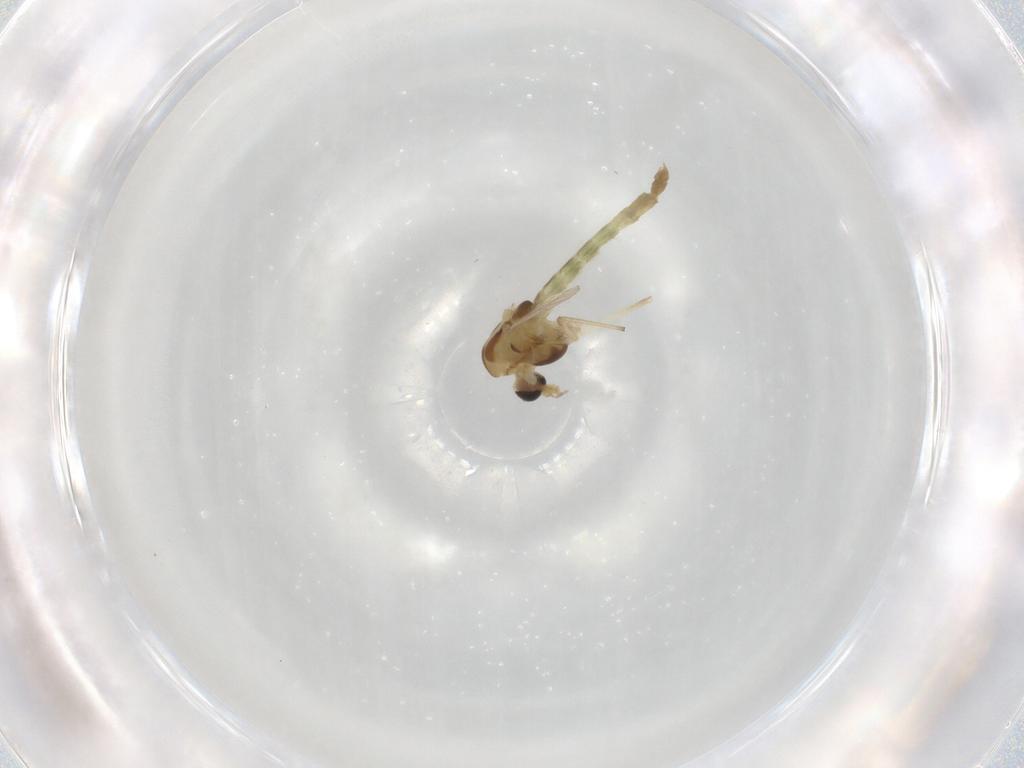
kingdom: Animalia
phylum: Arthropoda
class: Insecta
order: Diptera
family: Chironomidae
